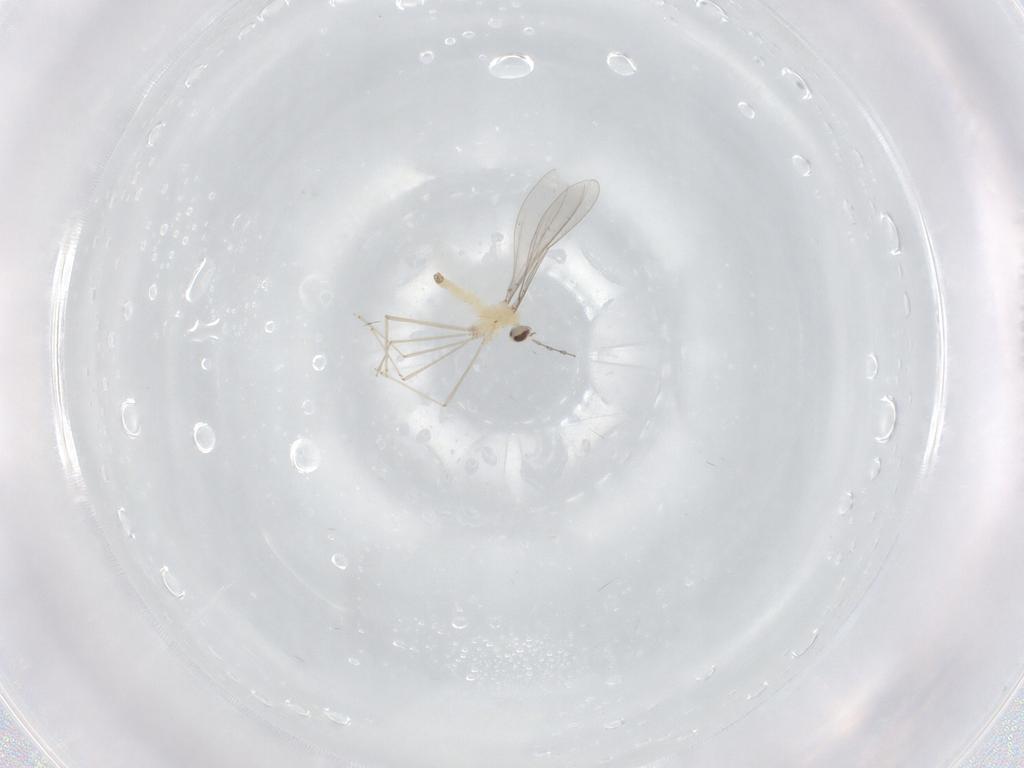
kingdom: Animalia
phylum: Arthropoda
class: Insecta
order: Diptera
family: Cecidomyiidae
